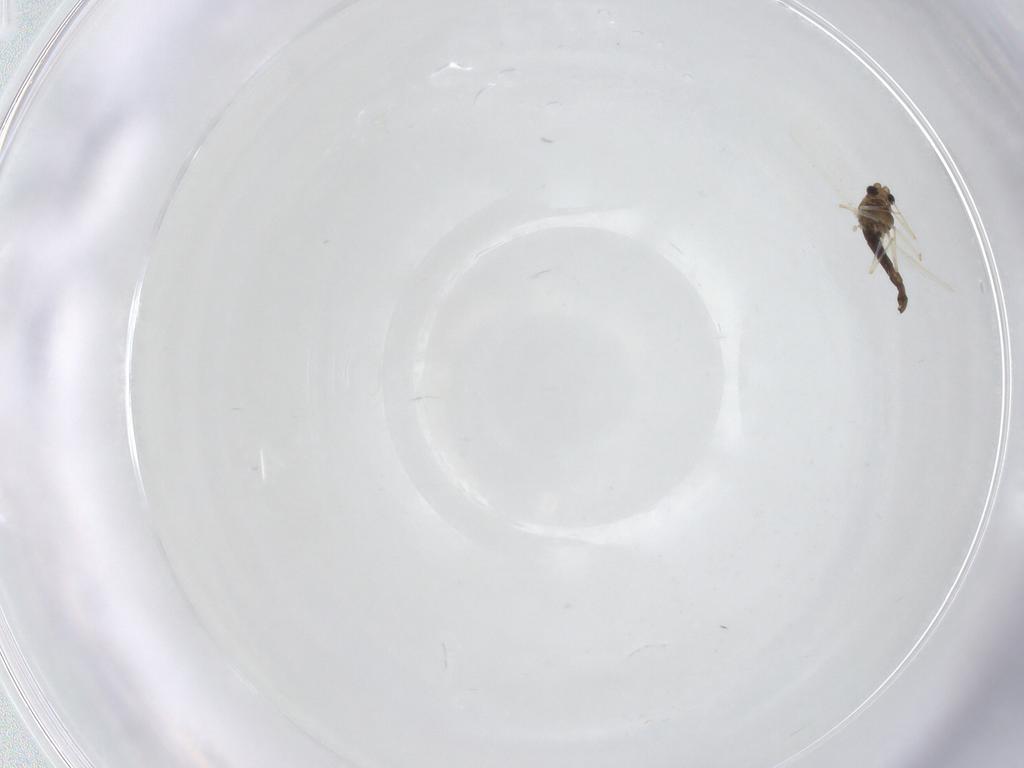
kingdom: Animalia
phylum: Arthropoda
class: Insecta
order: Diptera
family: Chironomidae
